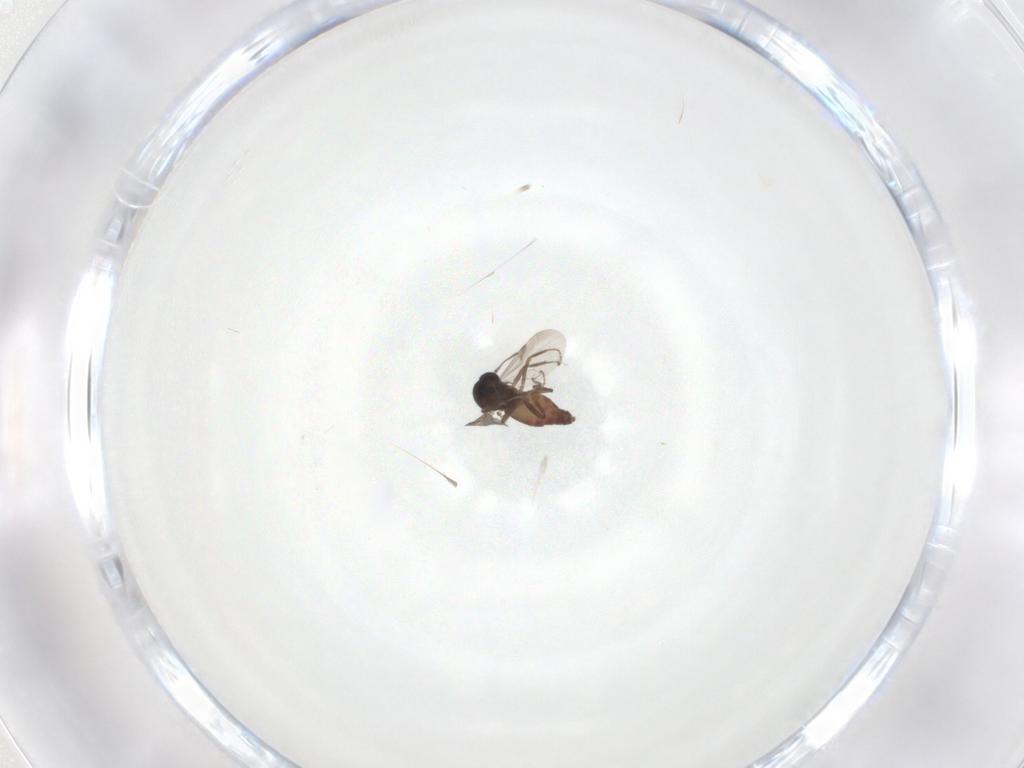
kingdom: Animalia
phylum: Arthropoda
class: Insecta
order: Diptera
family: Ceratopogonidae
